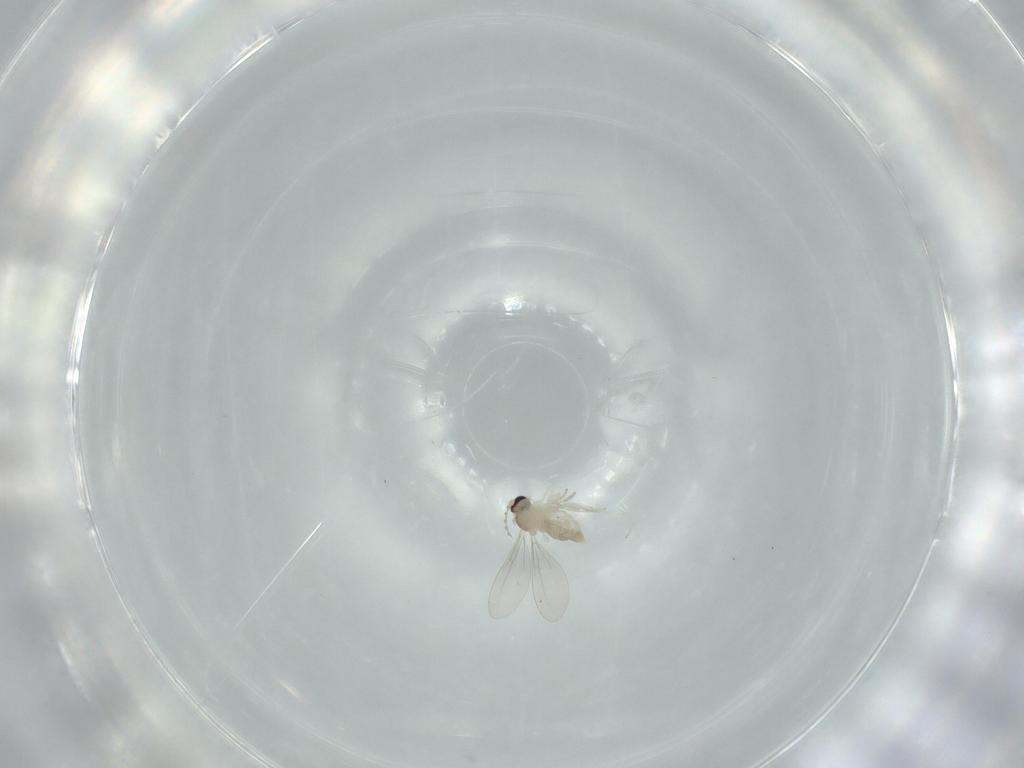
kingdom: Animalia
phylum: Arthropoda
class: Insecta
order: Diptera
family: Cecidomyiidae
